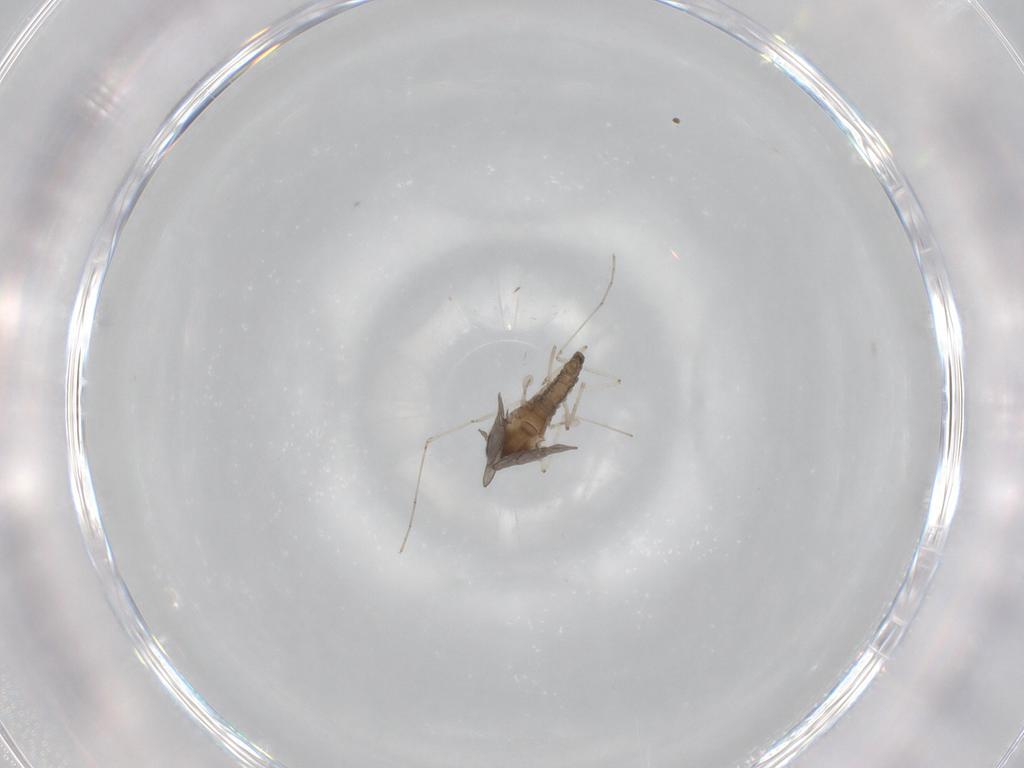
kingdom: Animalia
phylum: Arthropoda
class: Insecta
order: Diptera
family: Cecidomyiidae
